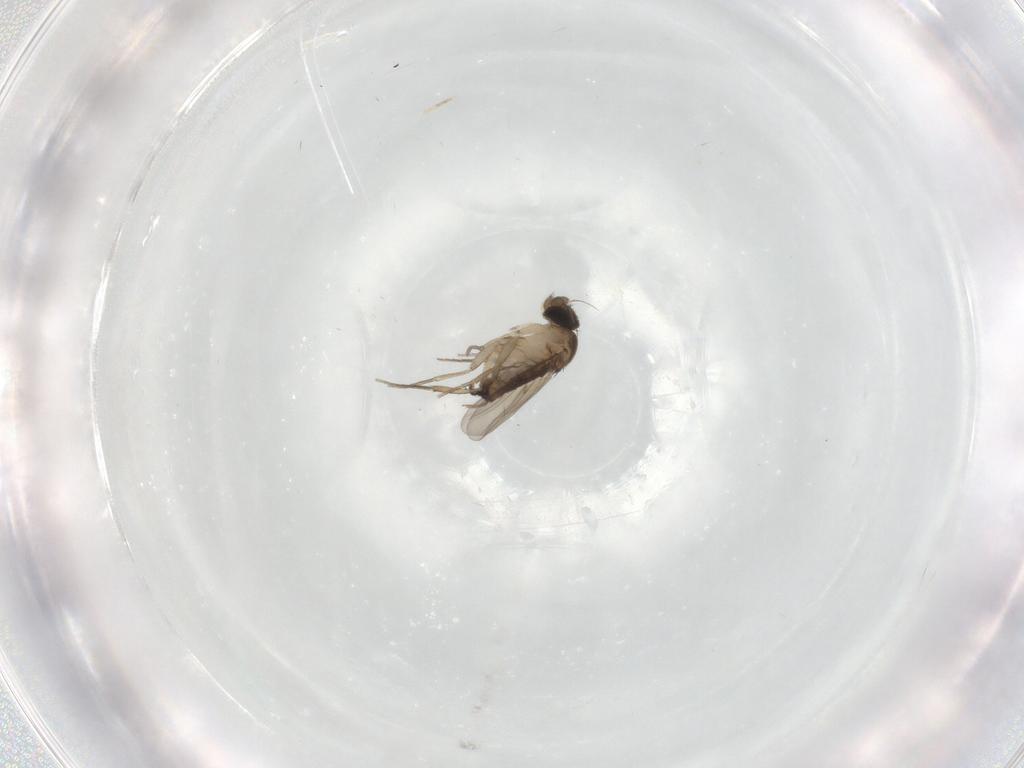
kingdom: Animalia
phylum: Arthropoda
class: Insecta
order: Diptera
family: Phoridae
